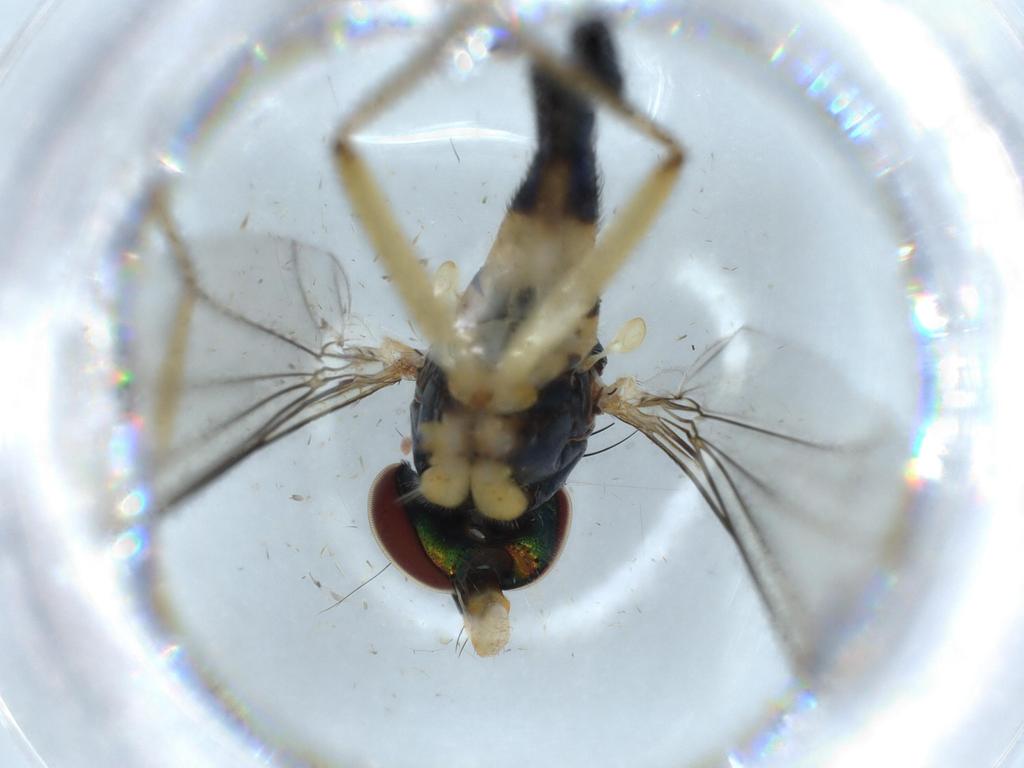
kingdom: Animalia
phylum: Arthropoda
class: Insecta
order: Diptera
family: Dolichopodidae
